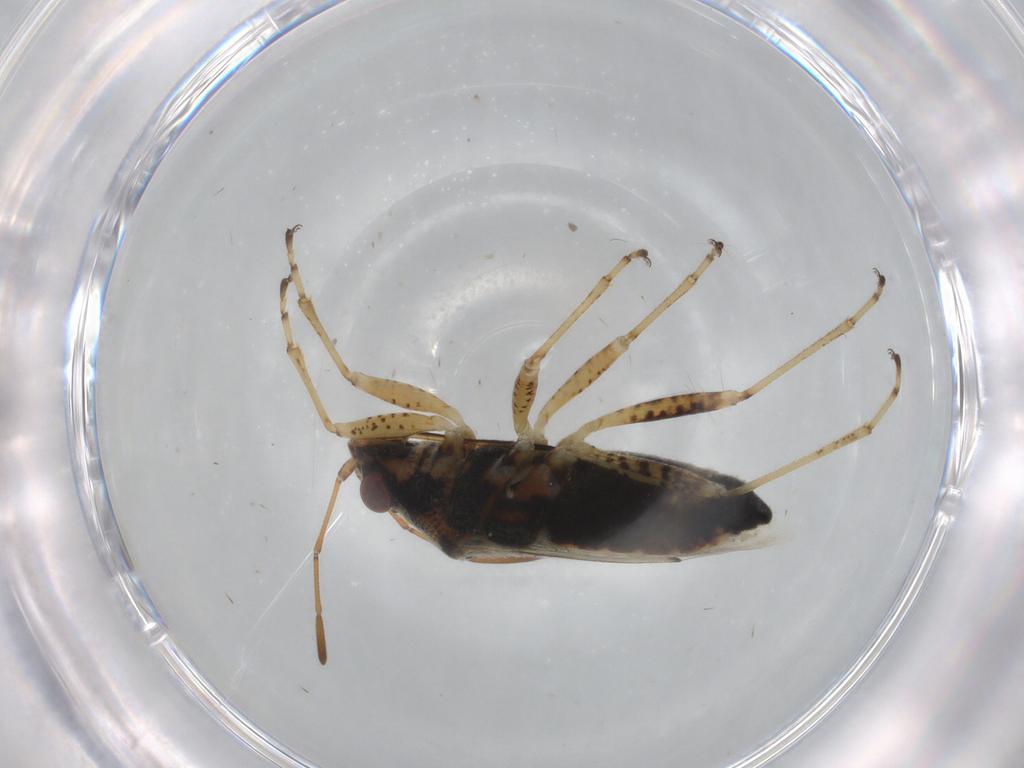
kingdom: Animalia
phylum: Arthropoda
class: Insecta
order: Hemiptera
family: Lygaeidae
